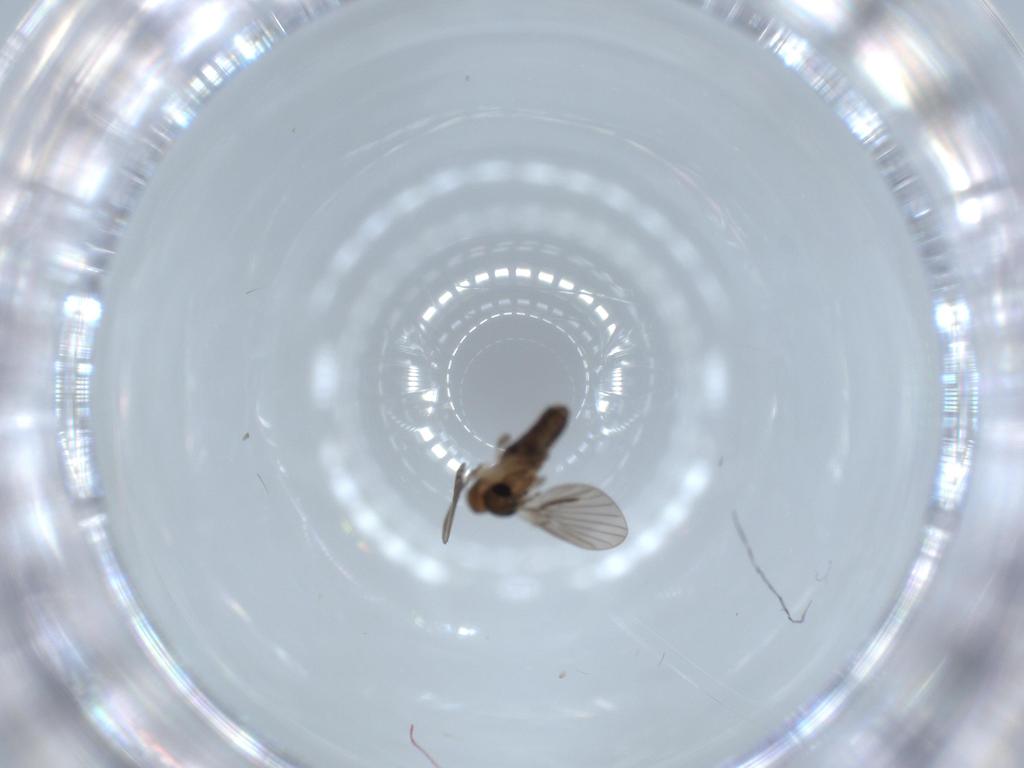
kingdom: Animalia
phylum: Arthropoda
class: Insecta
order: Diptera
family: Psychodidae
